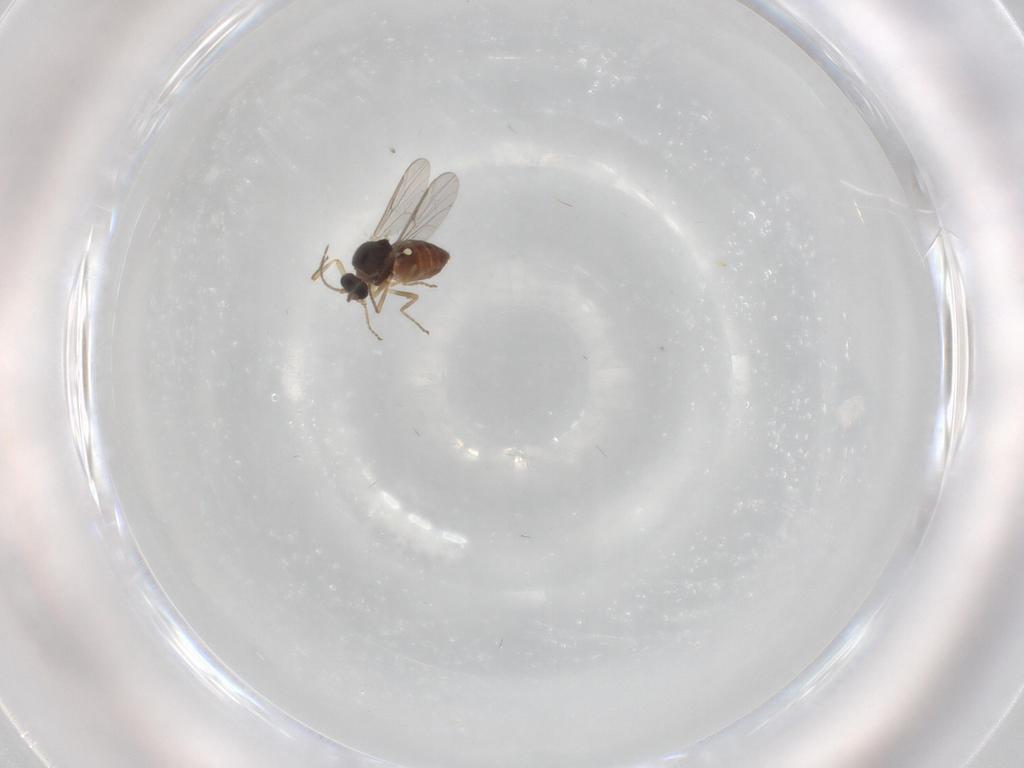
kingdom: Animalia
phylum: Arthropoda
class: Insecta
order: Diptera
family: Ceratopogonidae
